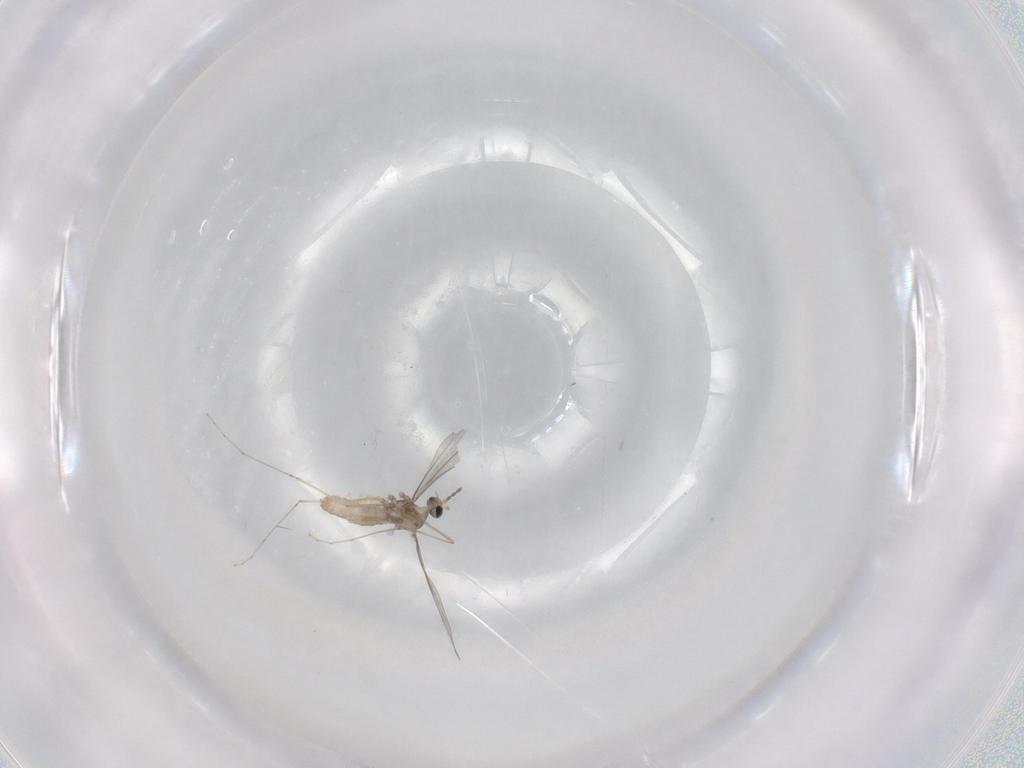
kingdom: Animalia
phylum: Arthropoda
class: Insecta
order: Diptera
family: Cecidomyiidae
